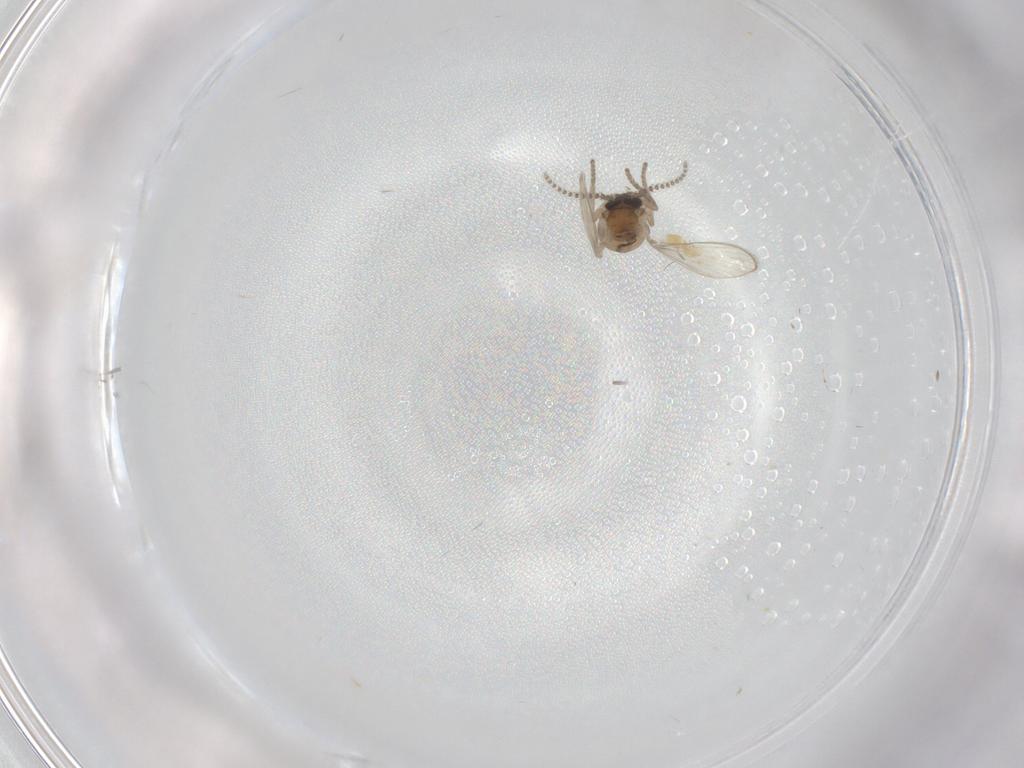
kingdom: Animalia
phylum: Arthropoda
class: Insecta
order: Diptera
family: Psychodidae
